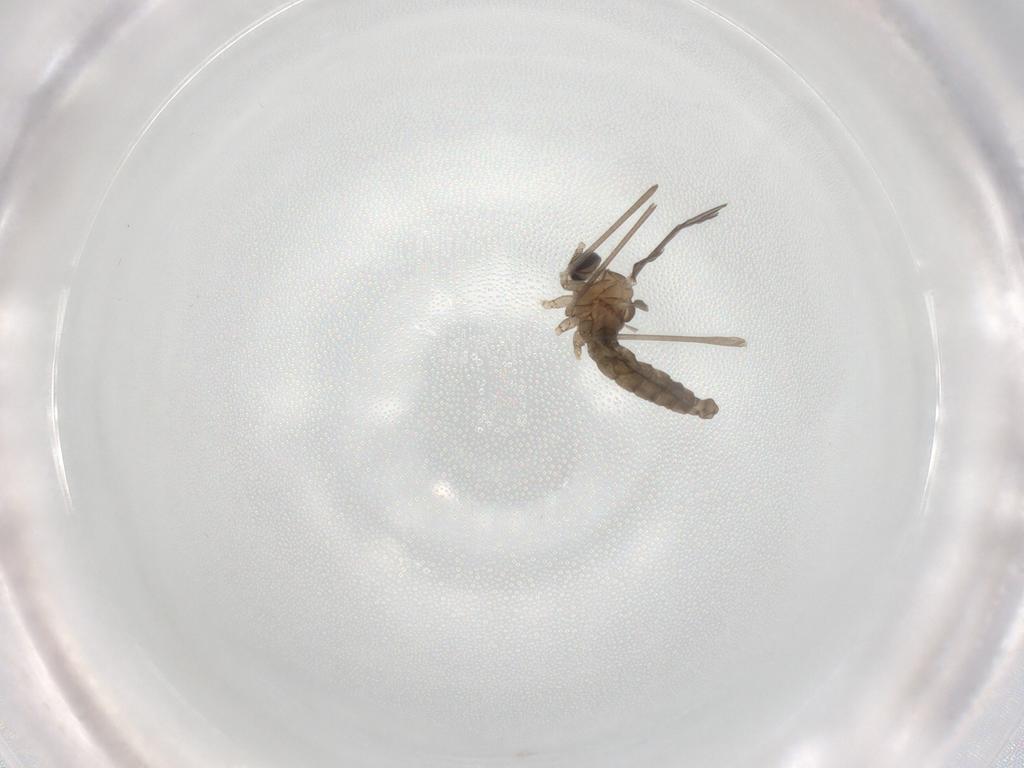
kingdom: Animalia
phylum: Arthropoda
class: Insecta
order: Diptera
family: Cecidomyiidae
